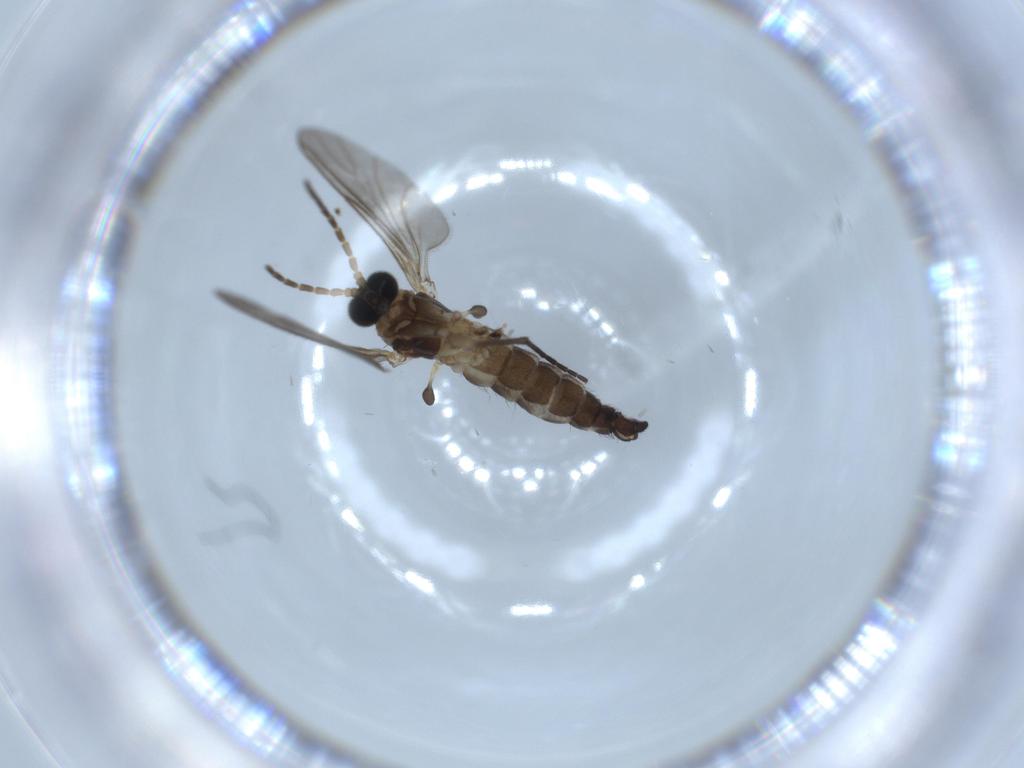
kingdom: Animalia
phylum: Arthropoda
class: Insecta
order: Diptera
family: Sciaridae
